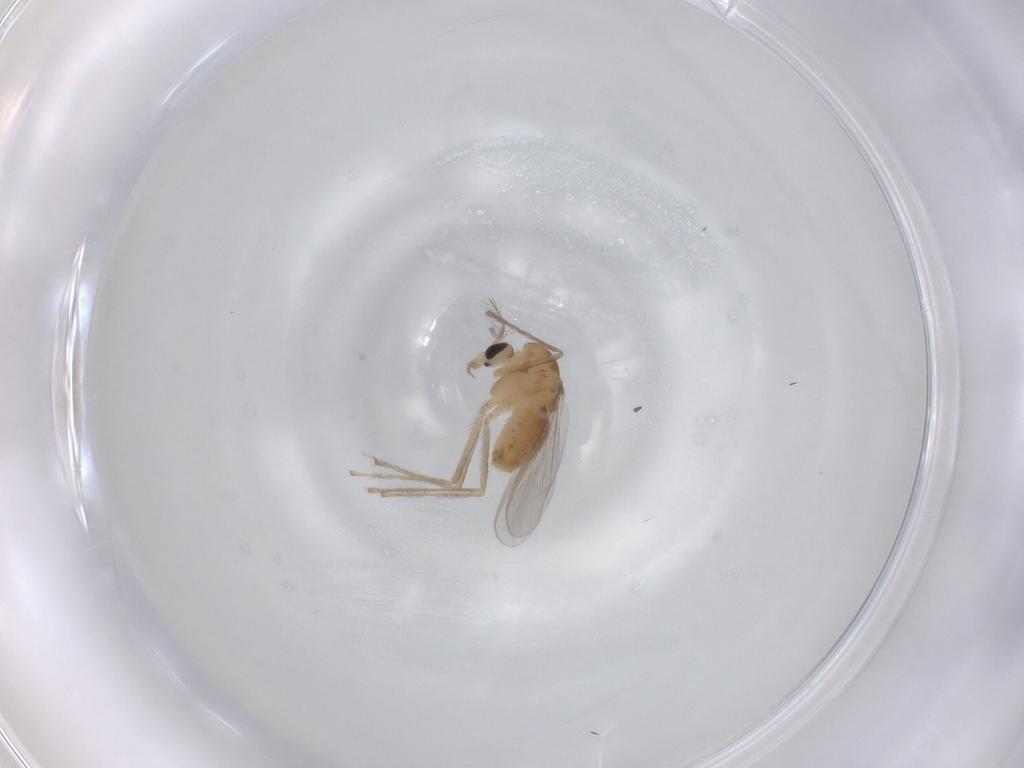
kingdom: Animalia
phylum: Arthropoda
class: Insecta
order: Diptera
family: Chironomidae
